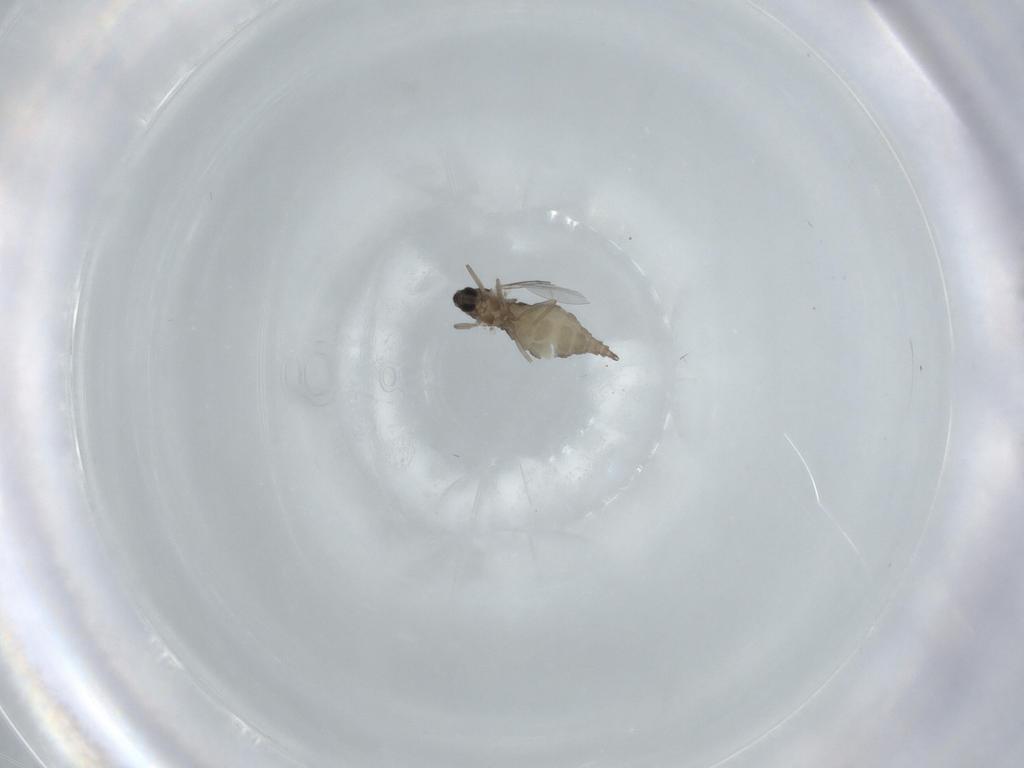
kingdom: Animalia
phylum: Arthropoda
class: Insecta
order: Diptera
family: Cecidomyiidae
